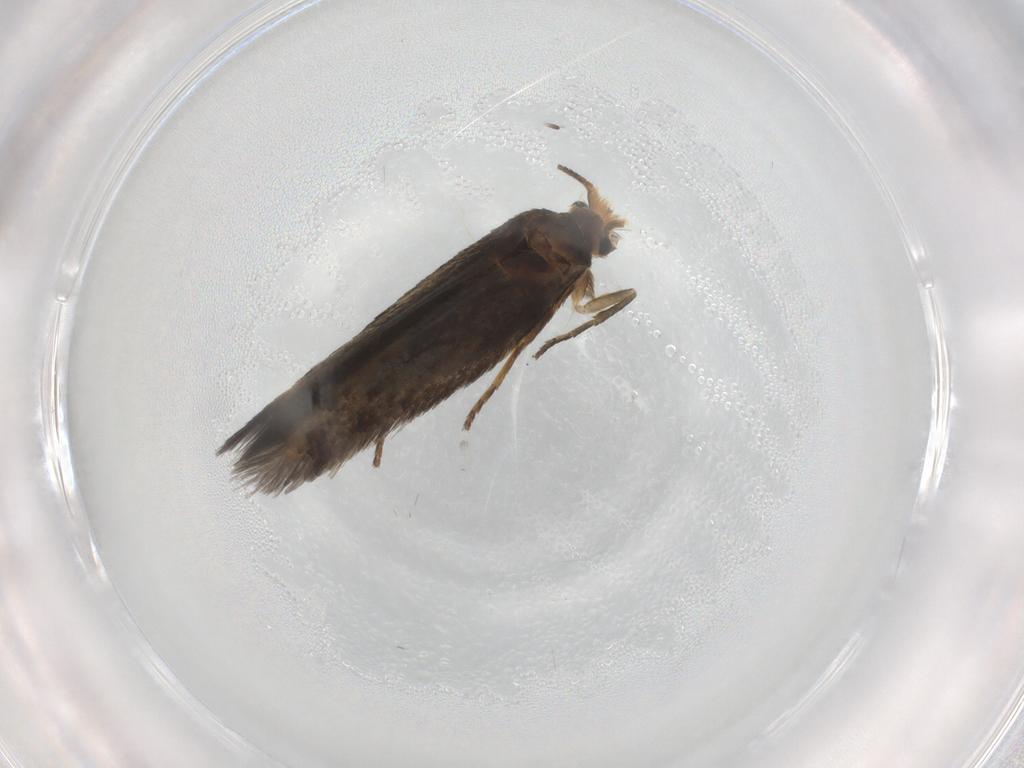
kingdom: Animalia
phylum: Arthropoda
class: Insecta
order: Lepidoptera
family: Nepticulidae
